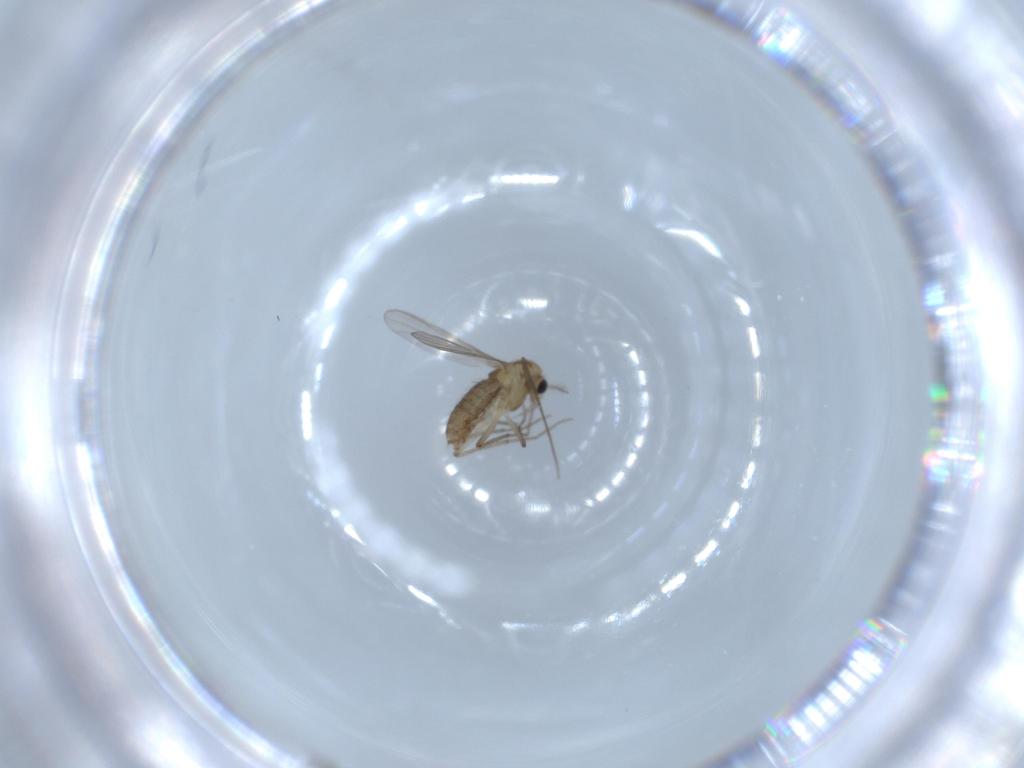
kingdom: Animalia
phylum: Arthropoda
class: Insecta
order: Diptera
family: Chironomidae
